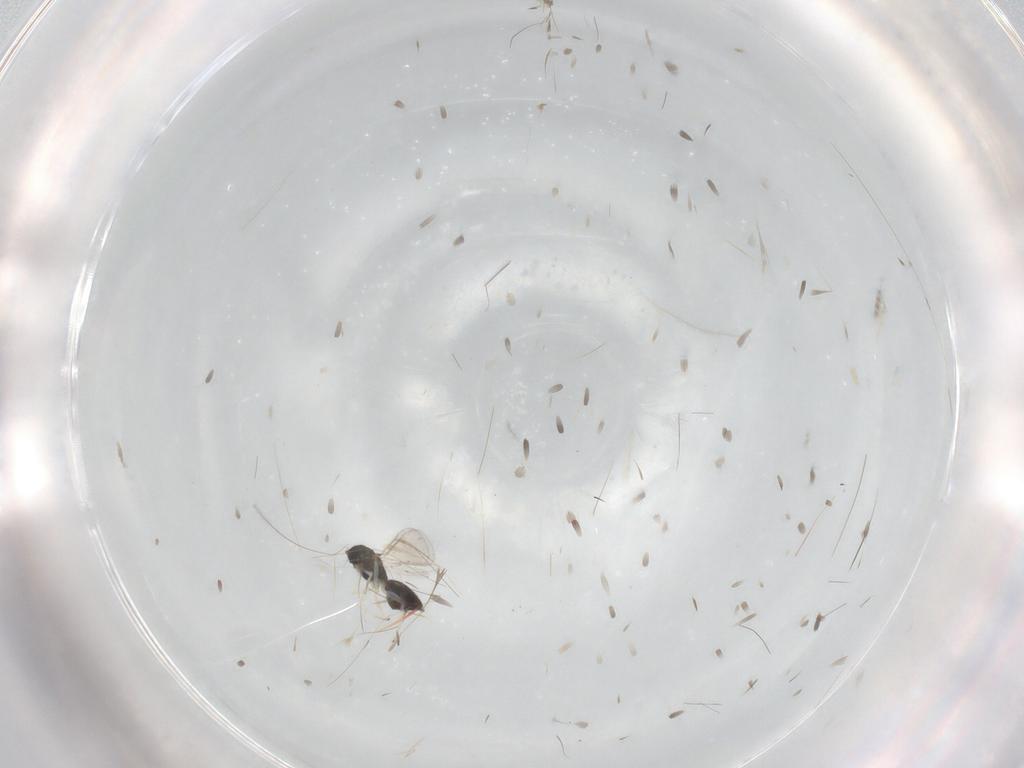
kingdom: Animalia
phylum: Arthropoda
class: Insecta
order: Hymenoptera
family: Eulophidae
